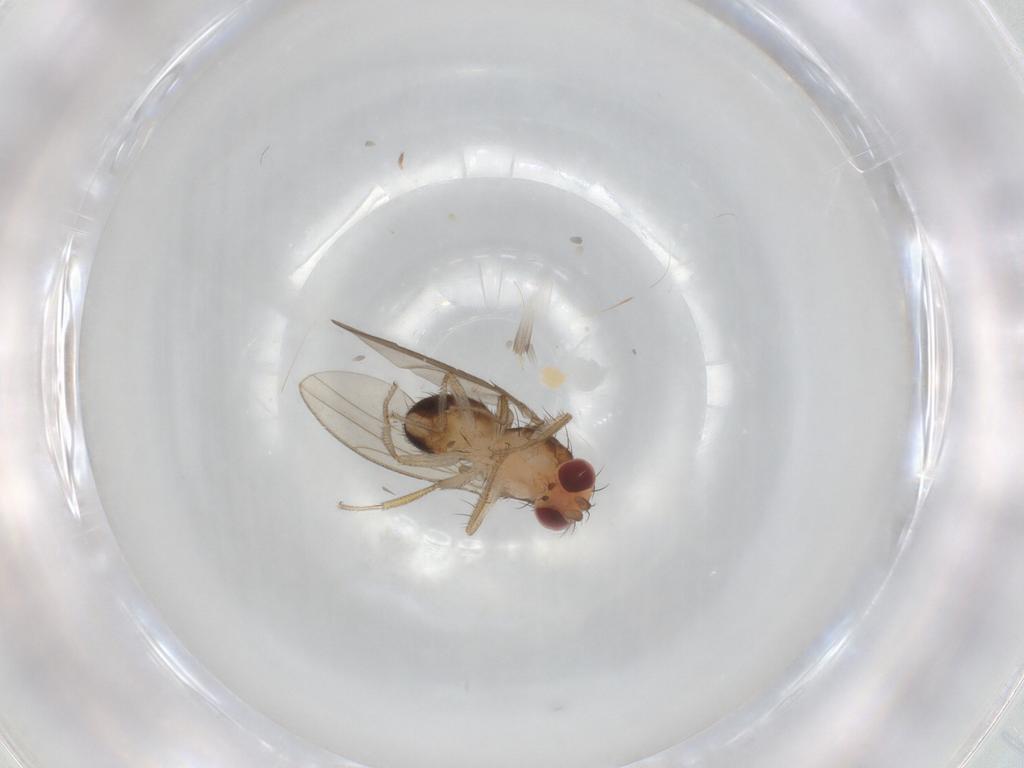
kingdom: Animalia
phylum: Arthropoda
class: Insecta
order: Diptera
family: Drosophilidae
